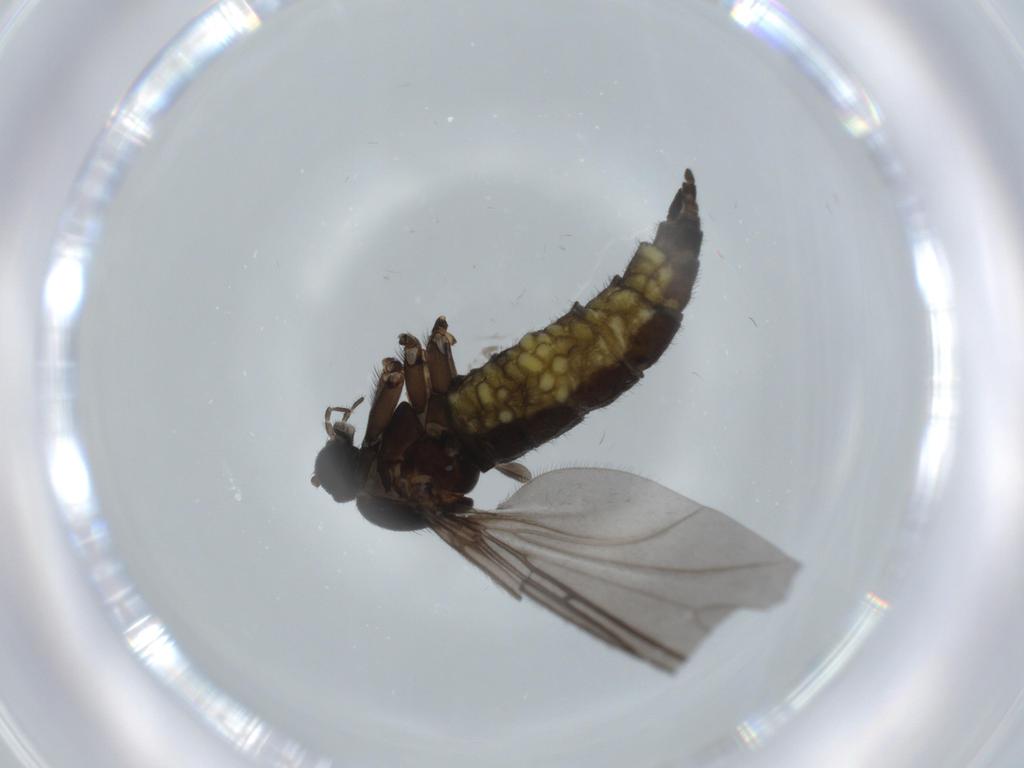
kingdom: Animalia
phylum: Arthropoda
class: Insecta
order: Diptera
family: Sciaridae
